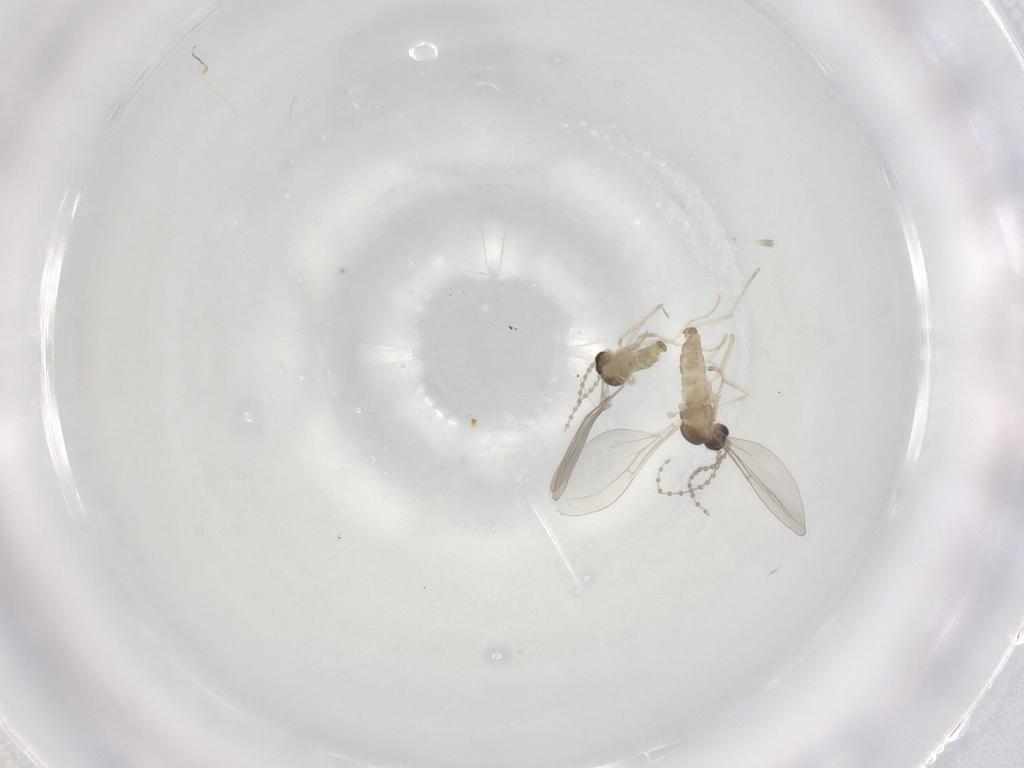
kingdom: Animalia
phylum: Arthropoda
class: Insecta
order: Diptera
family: Cecidomyiidae
